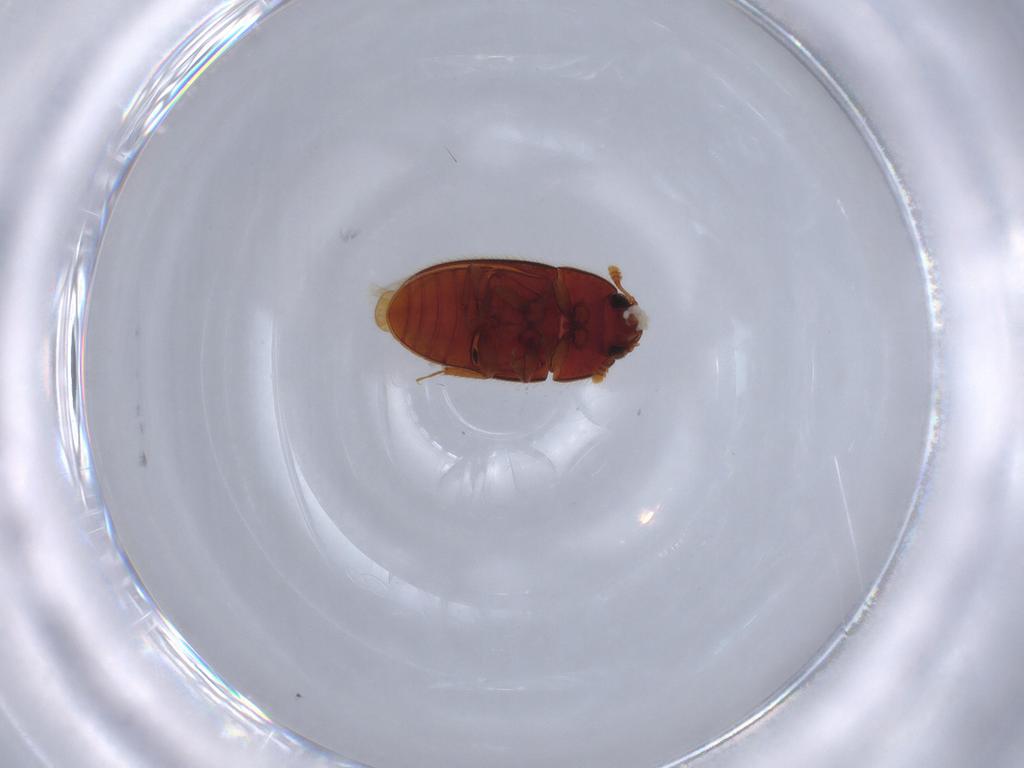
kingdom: Animalia
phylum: Arthropoda
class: Insecta
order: Coleoptera
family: Biphyllidae
